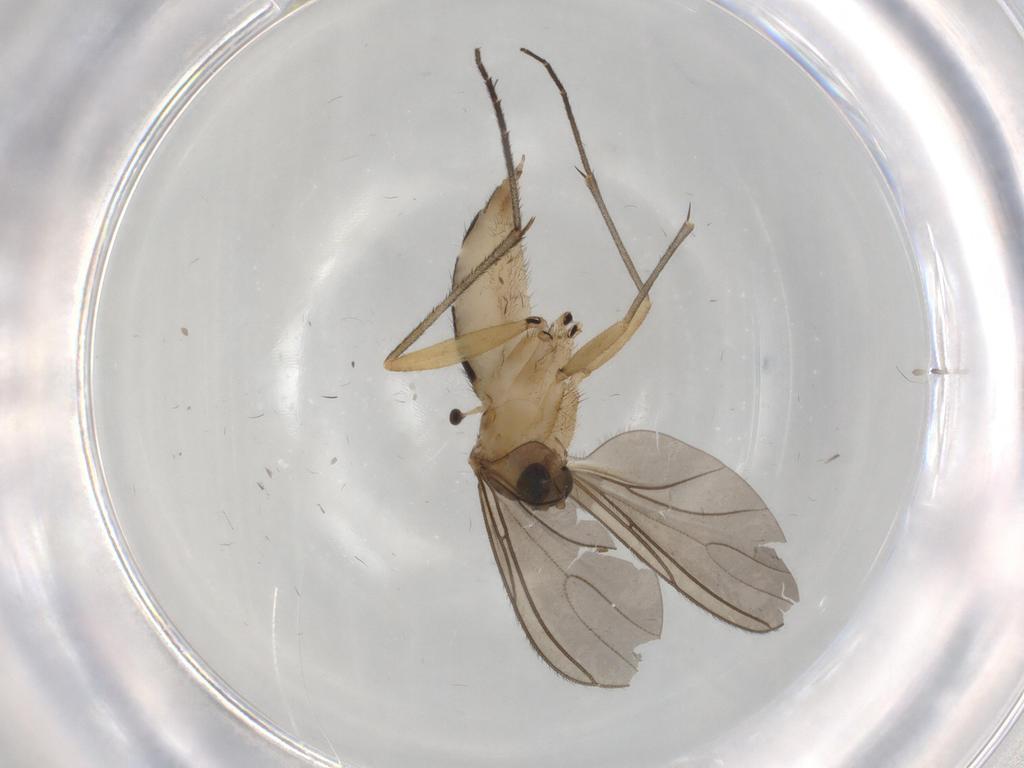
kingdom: Animalia
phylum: Arthropoda
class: Insecta
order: Diptera
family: Sciaridae
